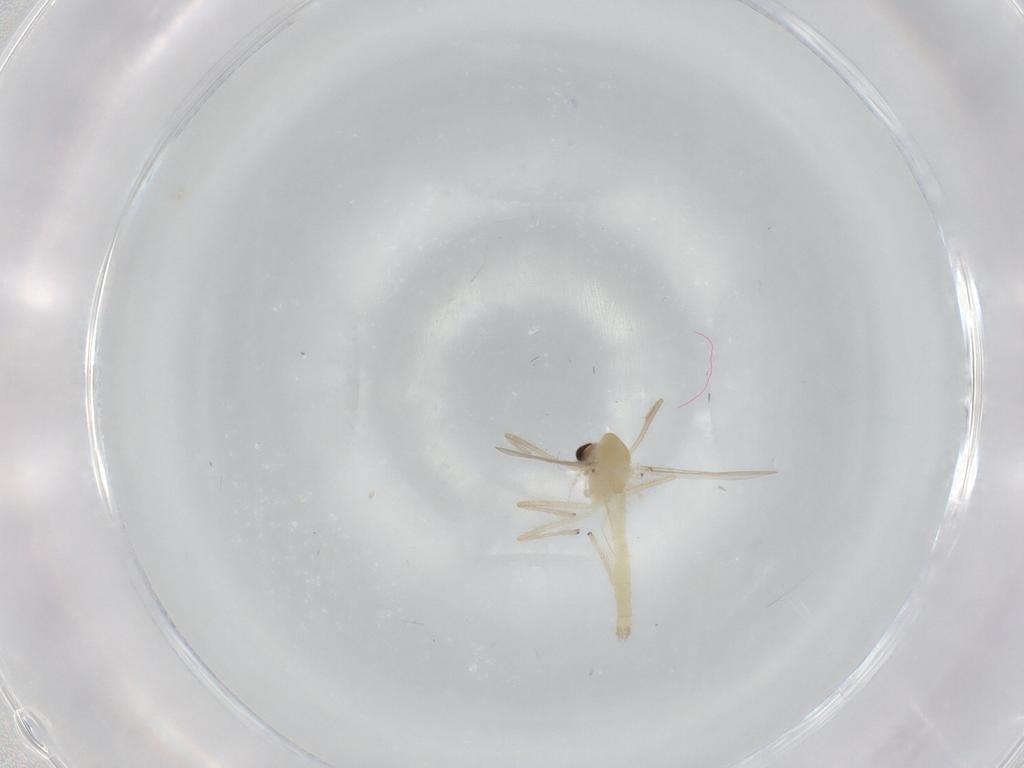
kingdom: Animalia
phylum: Arthropoda
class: Insecta
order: Diptera
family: Chironomidae
